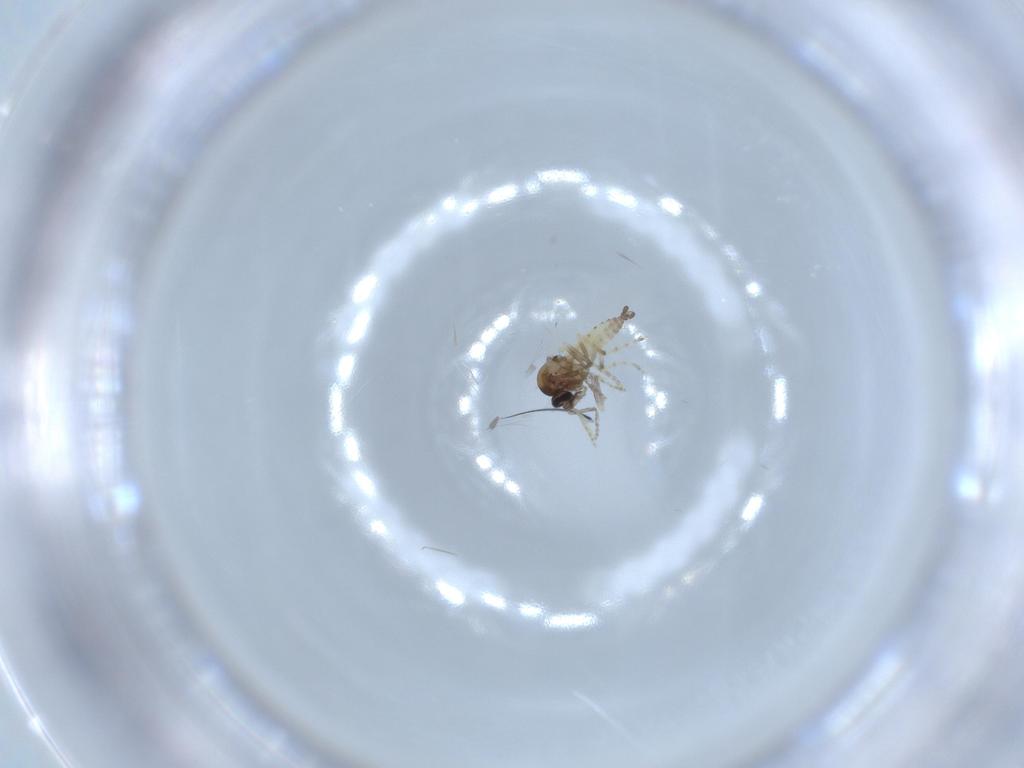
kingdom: Animalia
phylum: Arthropoda
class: Insecta
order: Diptera
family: Ceratopogonidae
